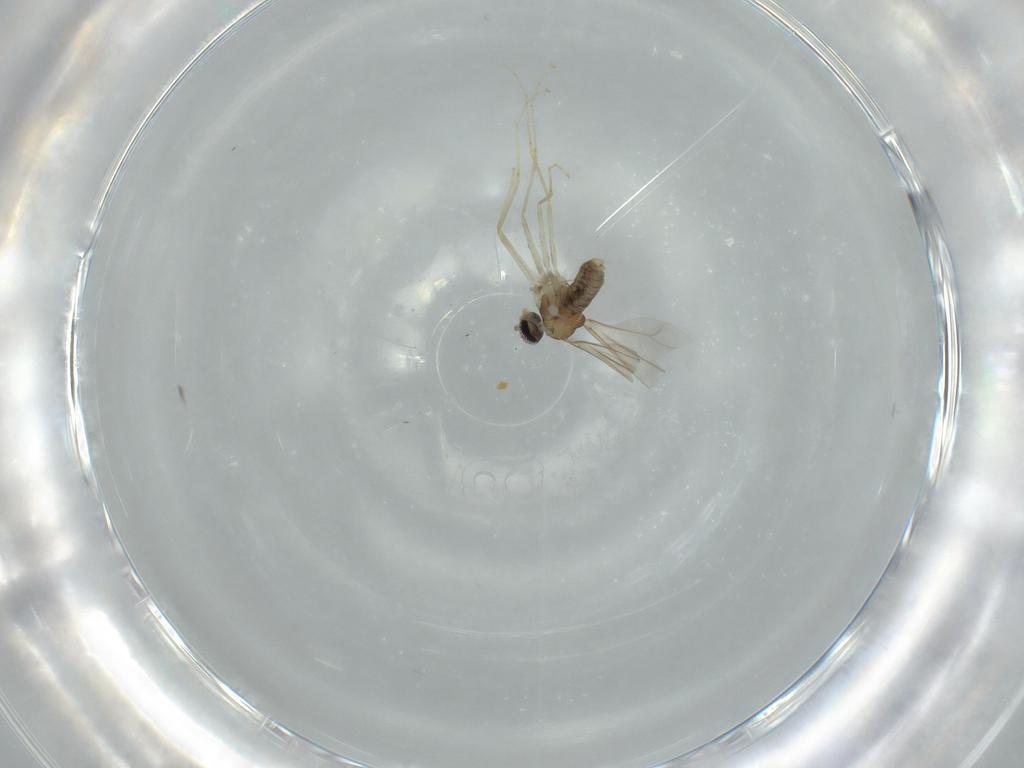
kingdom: Animalia
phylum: Arthropoda
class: Insecta
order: Diptera
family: Cecidomyiidae
